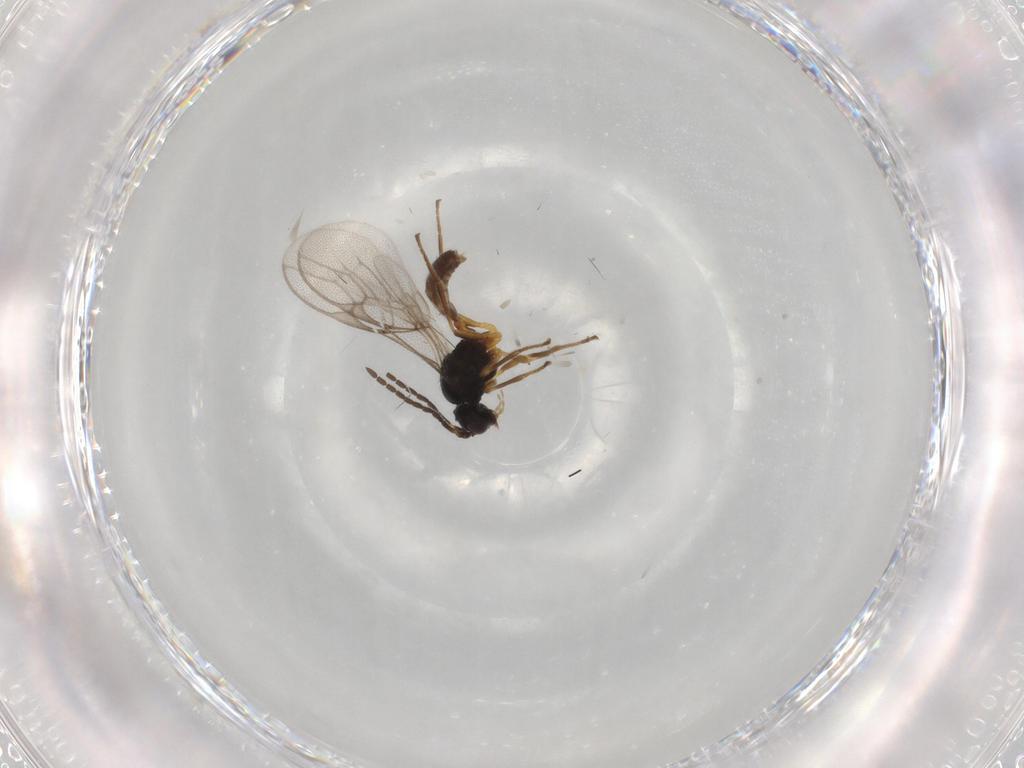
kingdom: Animalia
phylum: Arthropoda
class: Insecta
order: Hymenoptera
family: Braconidae
